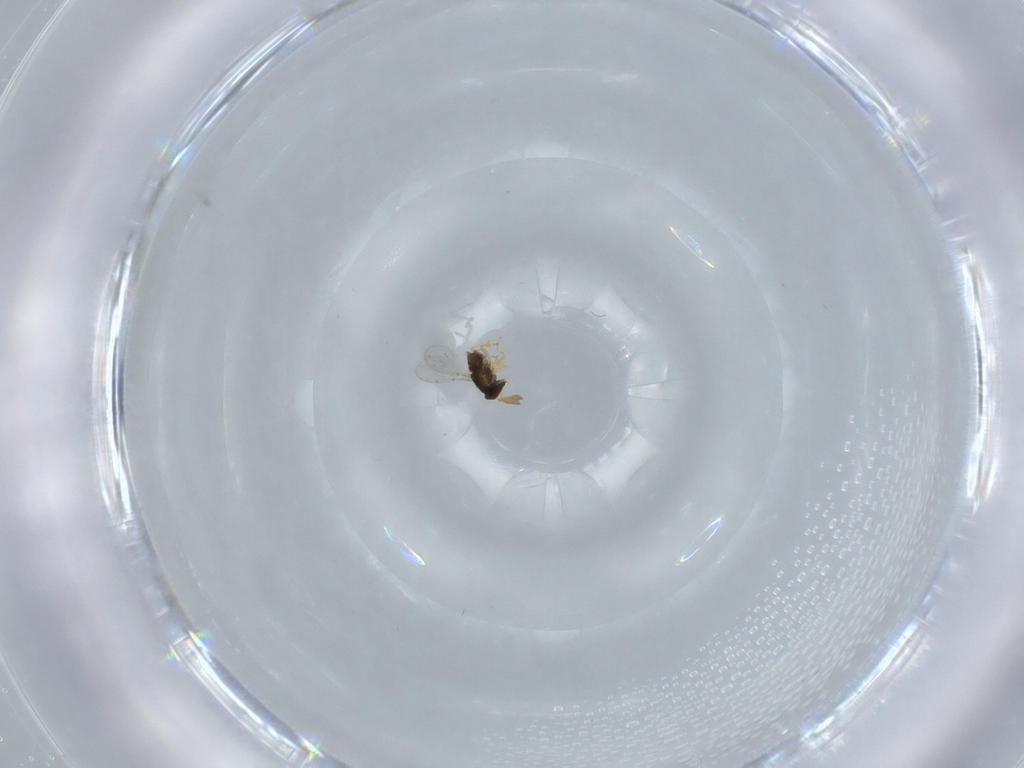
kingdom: Animalia
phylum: Arthropoda
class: Insecta
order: Hymenoptera
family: Encyrtidae
